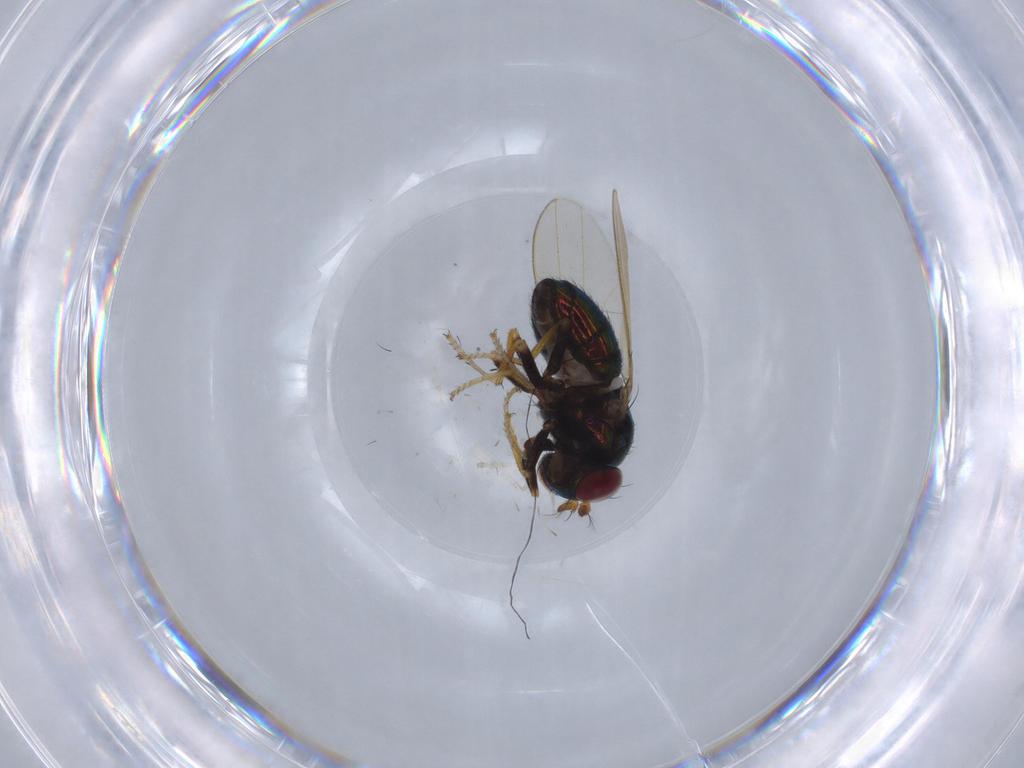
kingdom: Animalia
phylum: Arthropoda
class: Insecta
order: Diptera
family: Ephydridae
